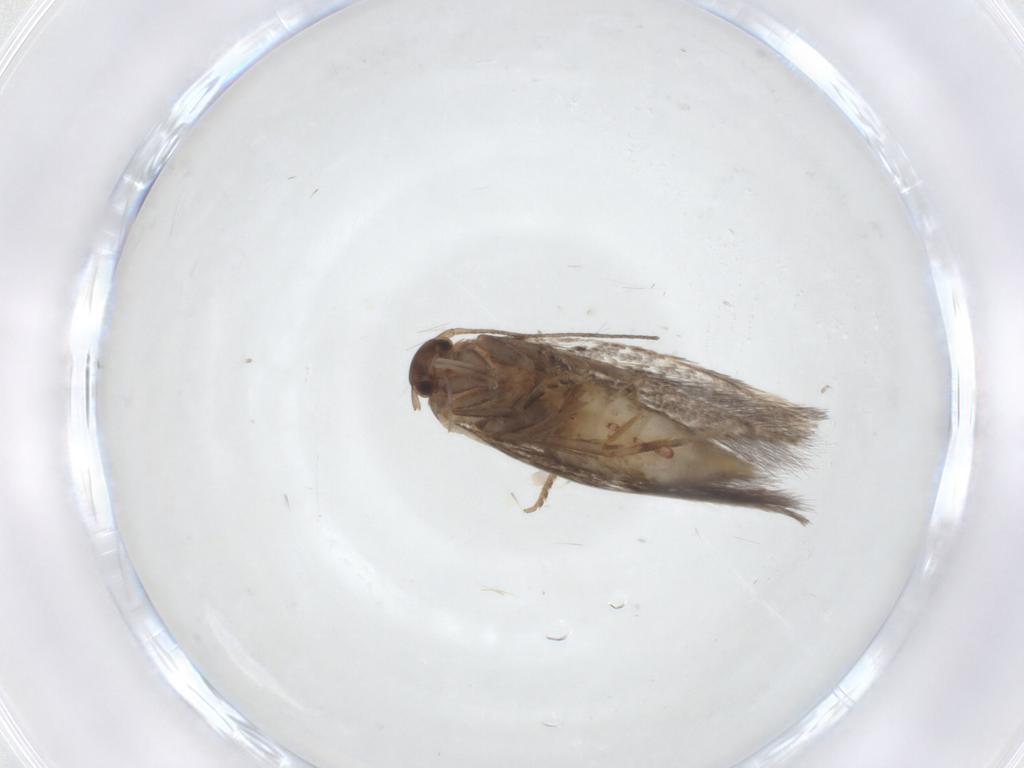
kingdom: Animalia
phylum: Arthropoda
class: Insecta
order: Lepidoptera
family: Elachistidae
